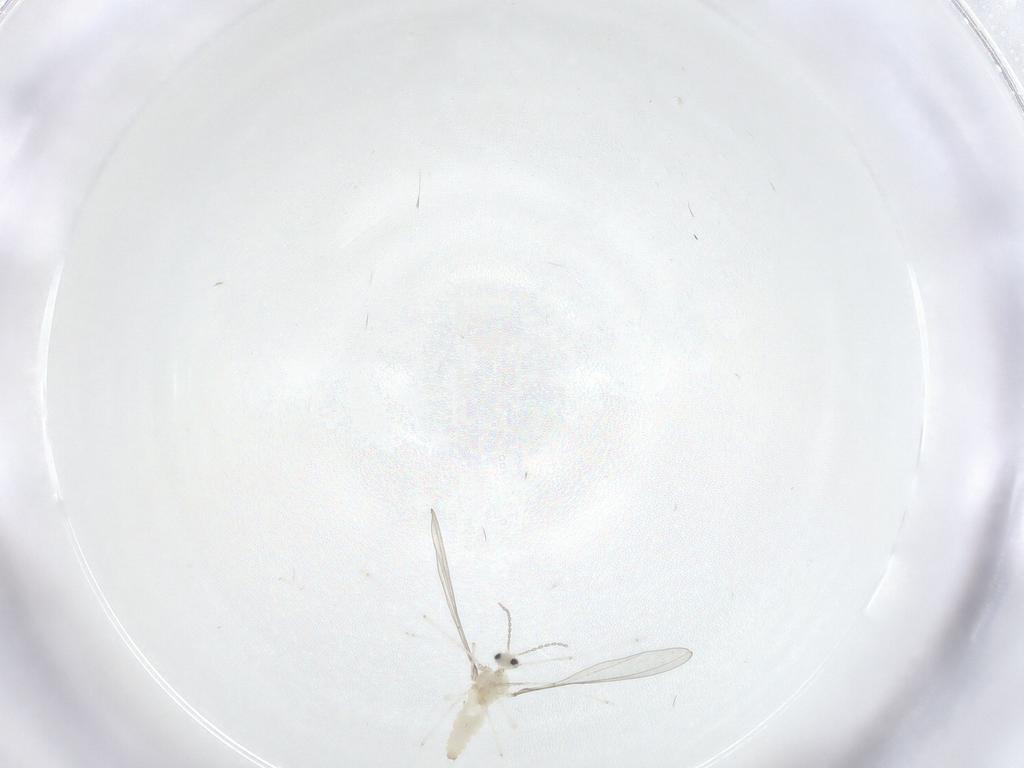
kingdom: Animalia
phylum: Arthropoda
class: Insecta
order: Diptera
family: Cecidomyiidae
